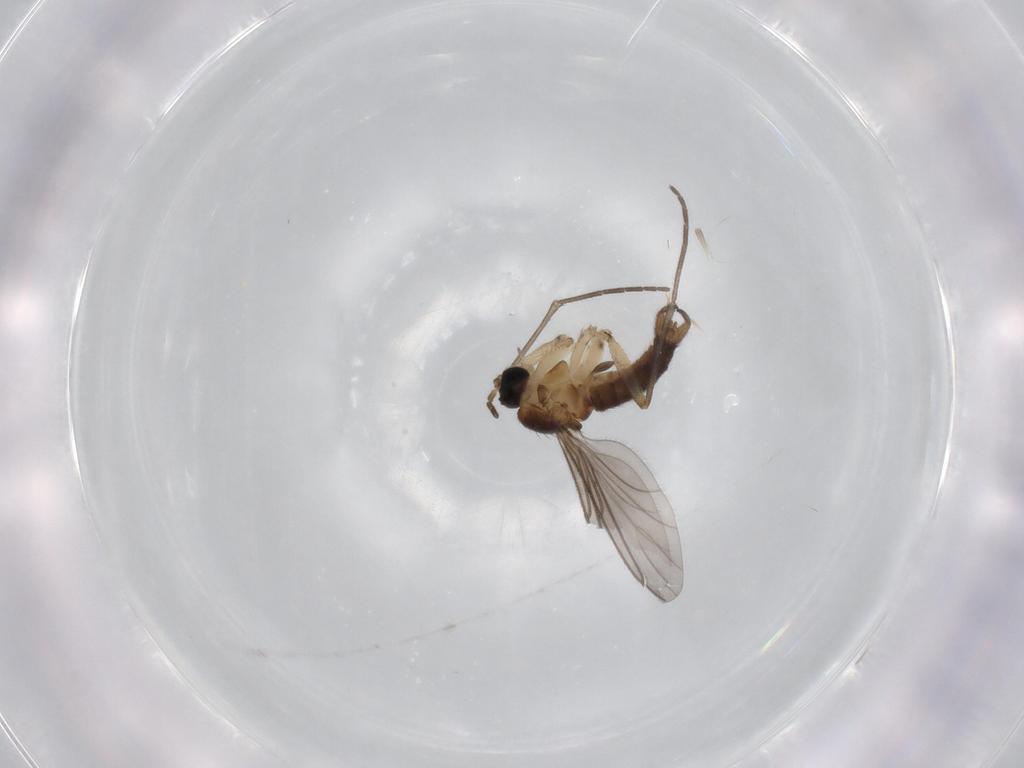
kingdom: Animalia
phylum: Arthropoda
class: Insecta
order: Diptera
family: Sciaridae
